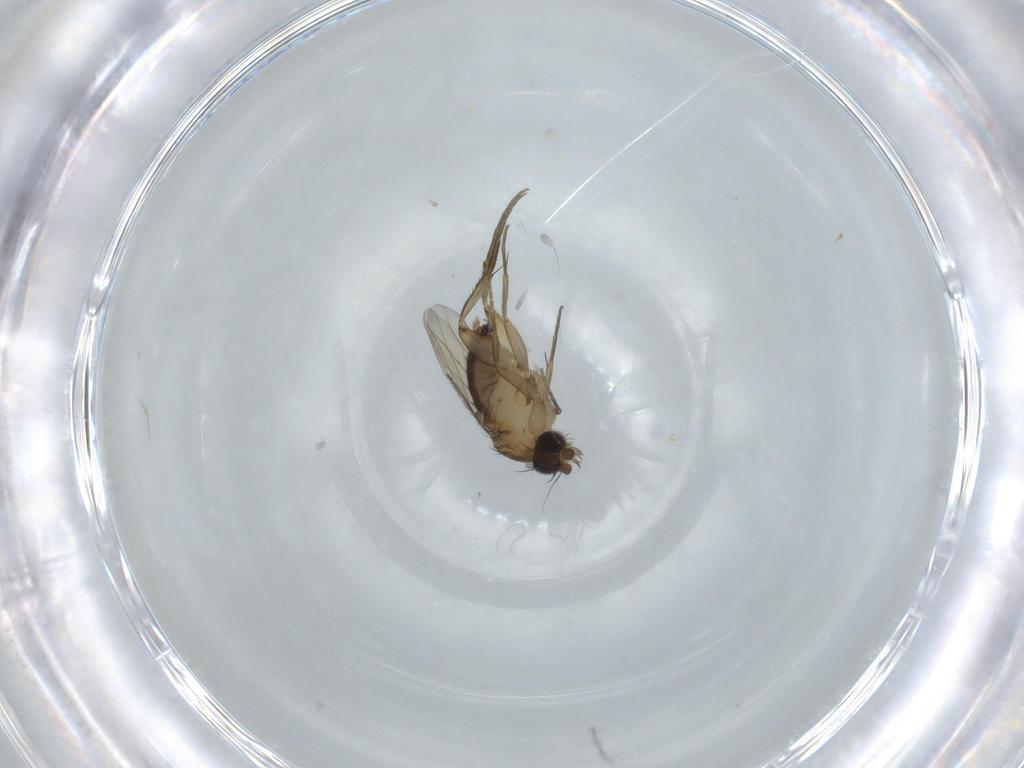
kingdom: Animalia
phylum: Arthropoda
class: Insecta
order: Diptera
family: Phoridae
